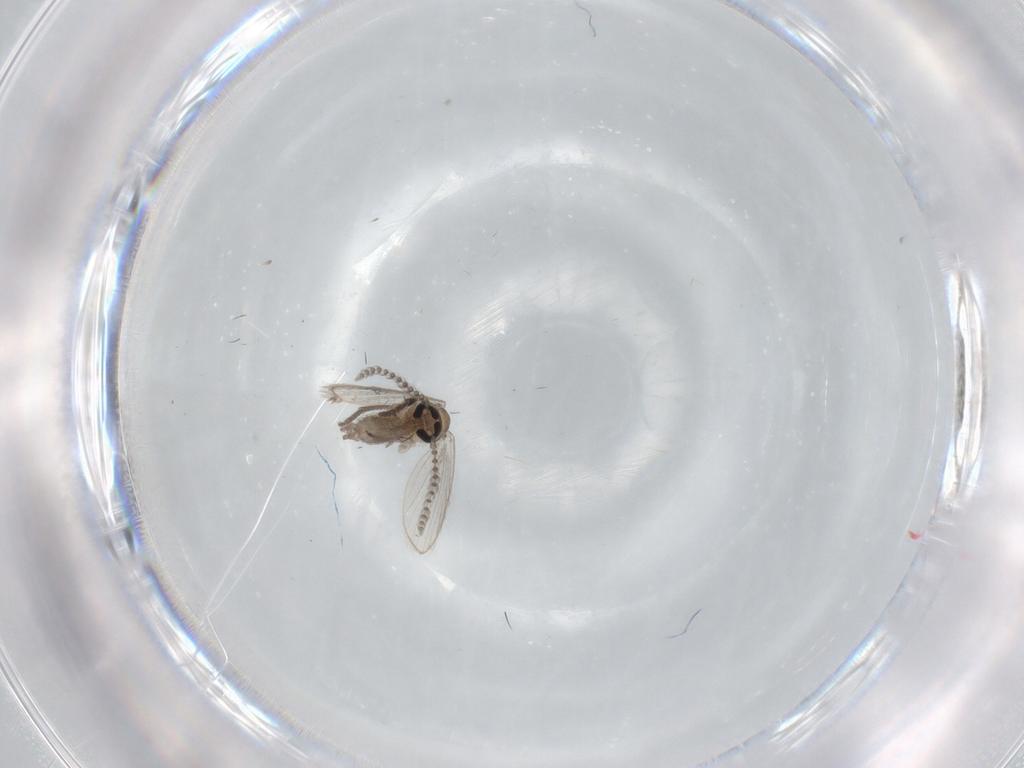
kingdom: Animalia
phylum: Arthropoda
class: Insecta
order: Diptera
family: Psychodidae
